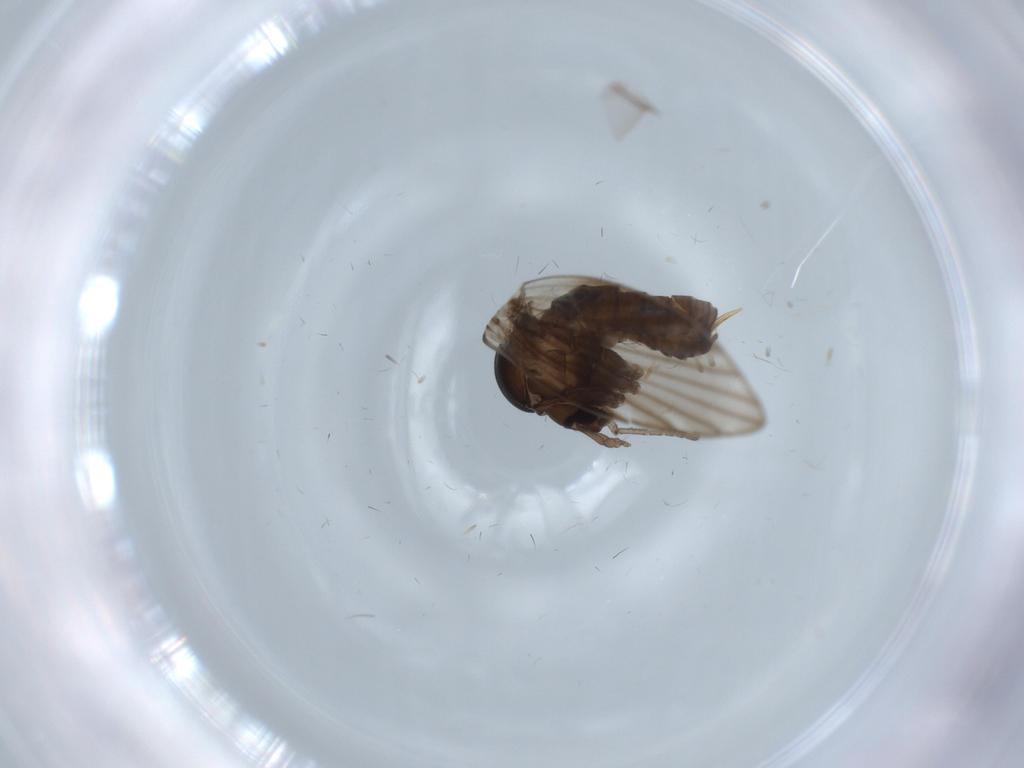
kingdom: Animalia
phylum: Arthropoda
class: Insecta
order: Diptera
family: Psychodidae
